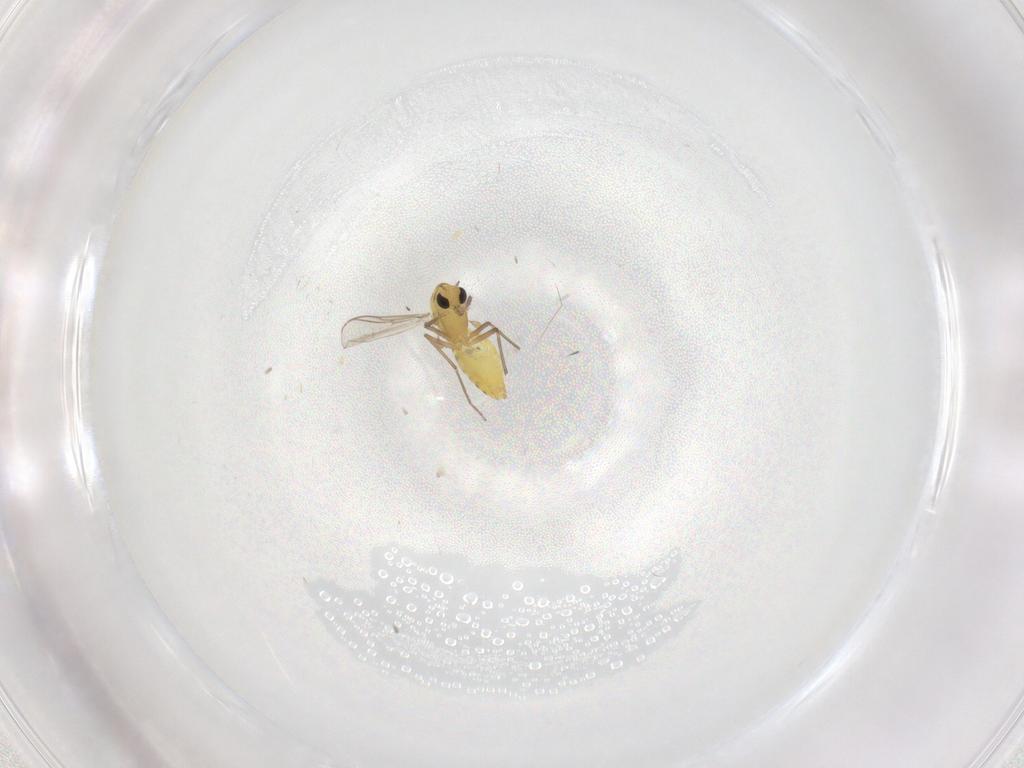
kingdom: Animalia
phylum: Arthropoda
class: Insecta
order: Diptera
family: Chironomidae
